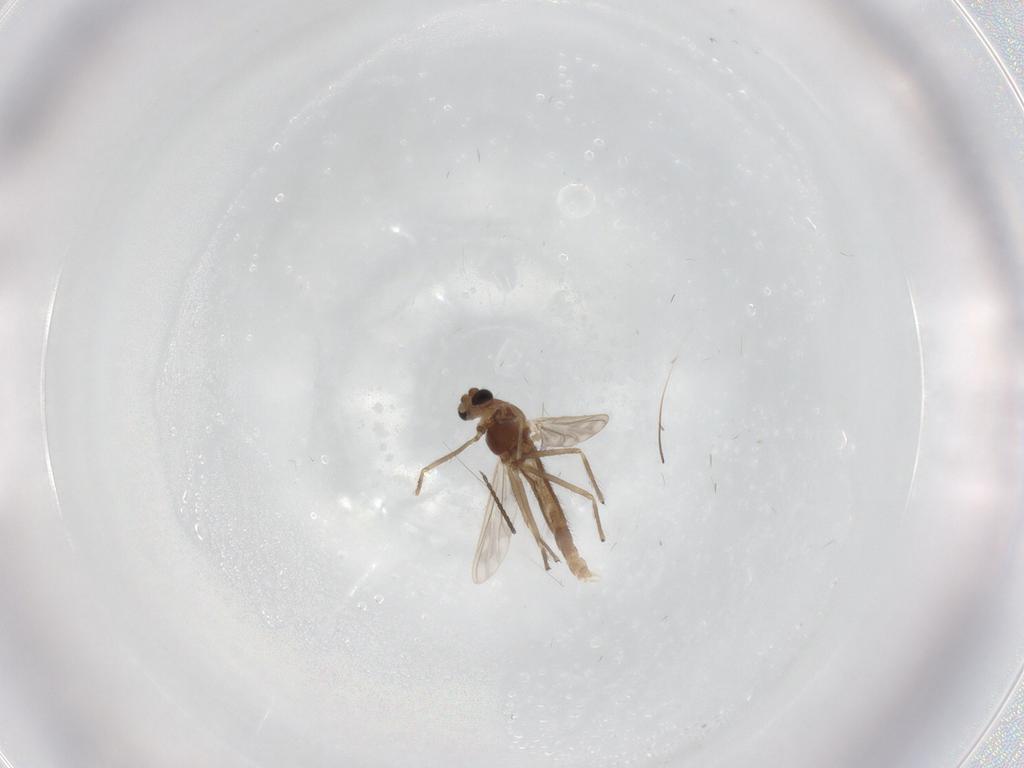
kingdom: Animalia
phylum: Arthropoda
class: Insecta
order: Diptera
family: Chironomidae
